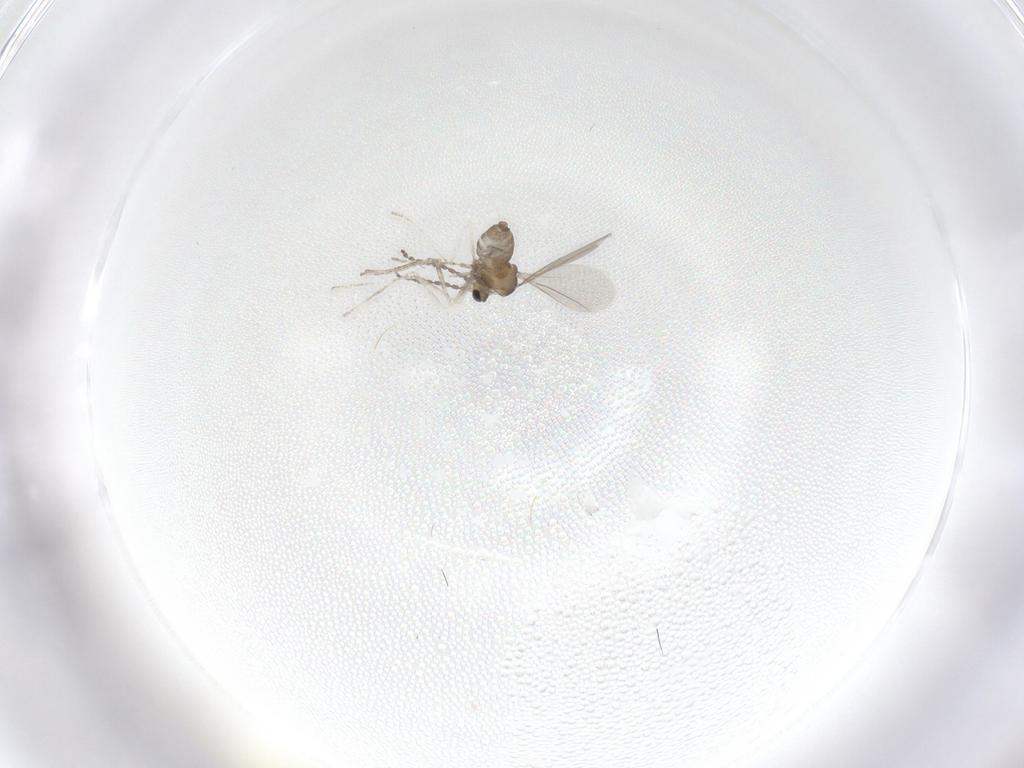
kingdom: Animalia
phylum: Arthropoda
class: Insecta
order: Diptera
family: Cecidomyiidae
